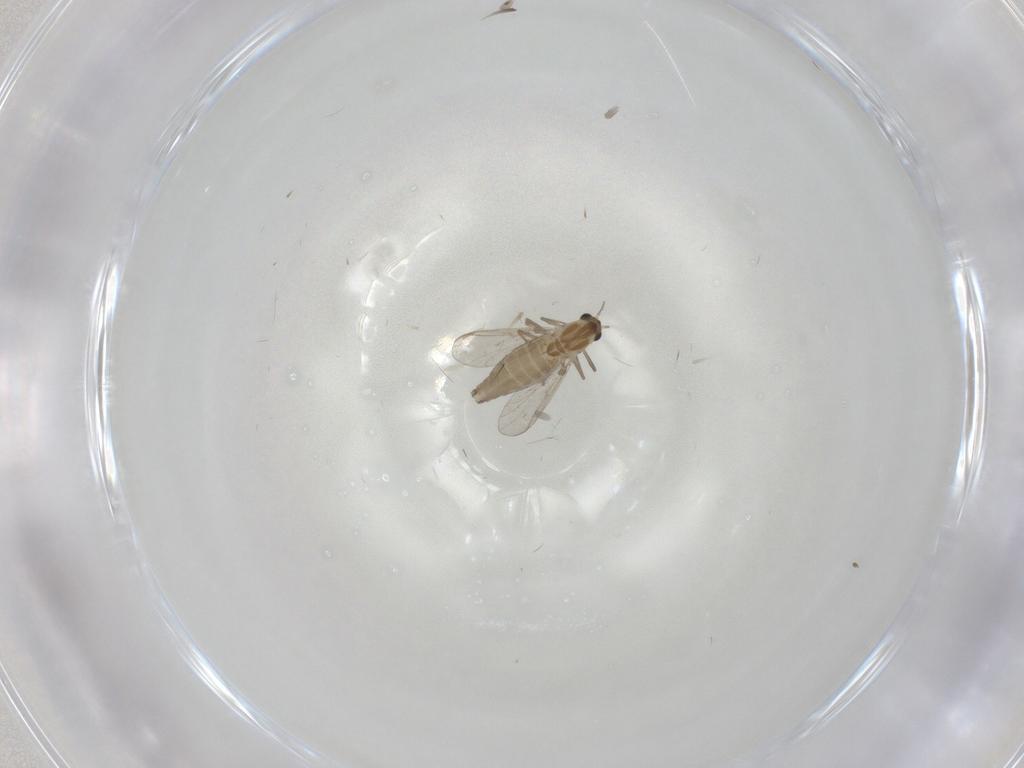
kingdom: Animalia
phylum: Arthropoda
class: Insecta
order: Diptera
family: Chironomidae
